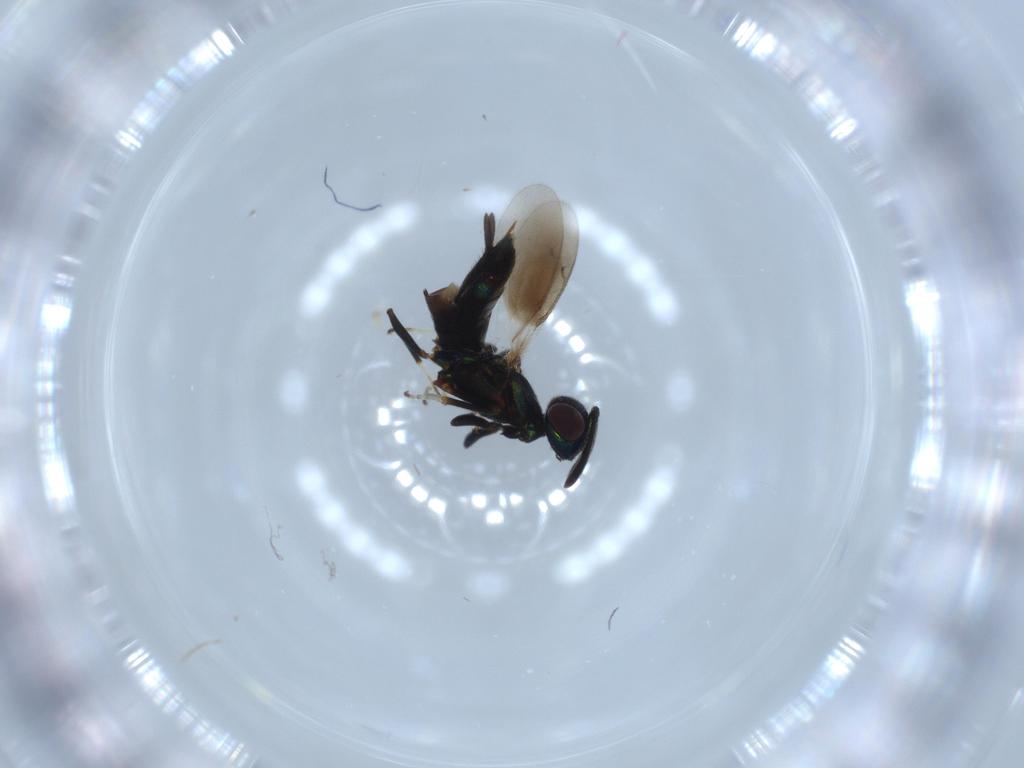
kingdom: Animalia
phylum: Arthropoda
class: Insecta
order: Hymenoptera
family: Eupelmidae
